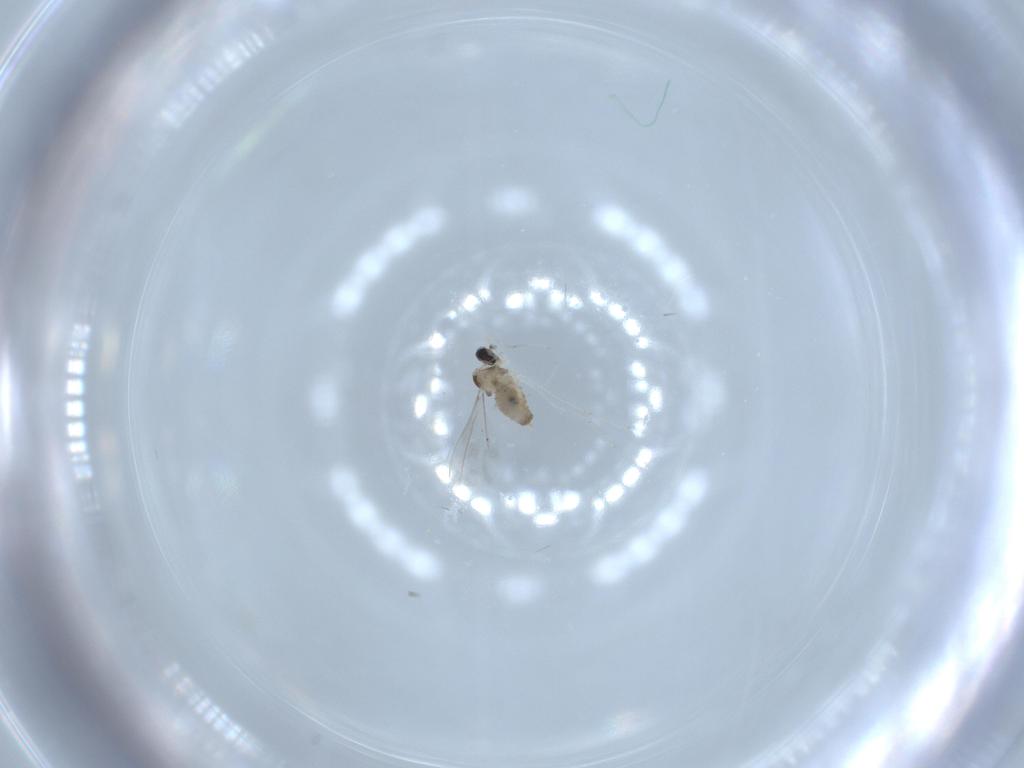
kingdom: Animalia
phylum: Arthropoda
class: Insecta
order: Diptera
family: Cecidomyiidae
